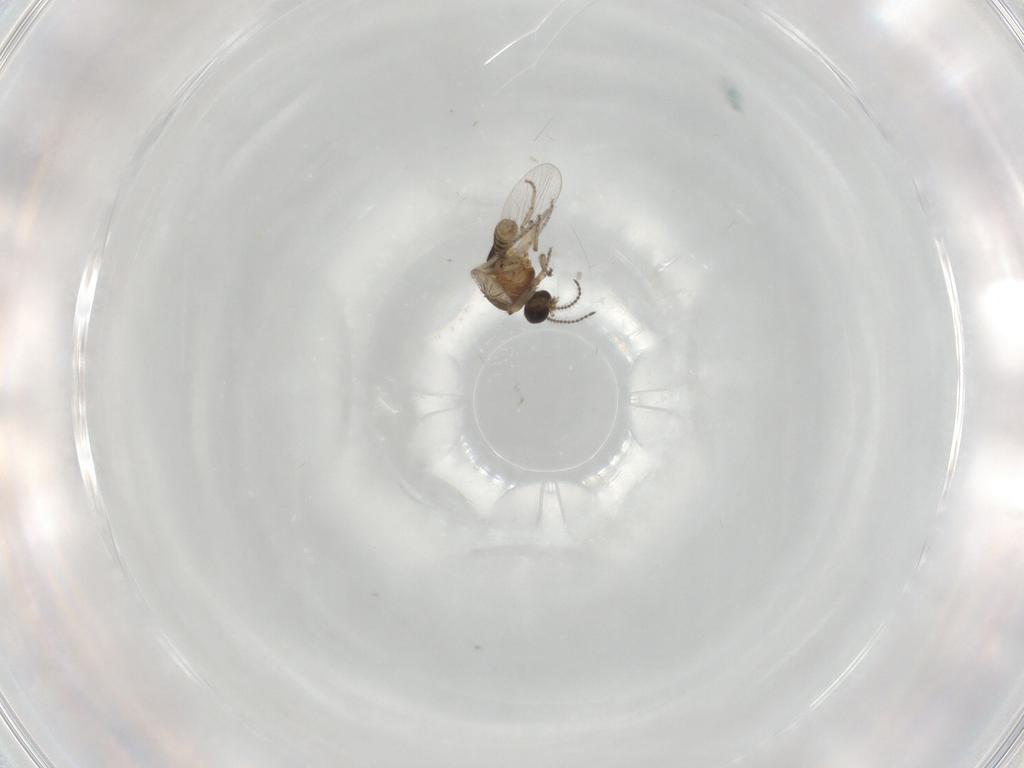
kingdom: Animalia
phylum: Arthropoda
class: Insecta
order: Diptera
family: Ceratopogonidae
